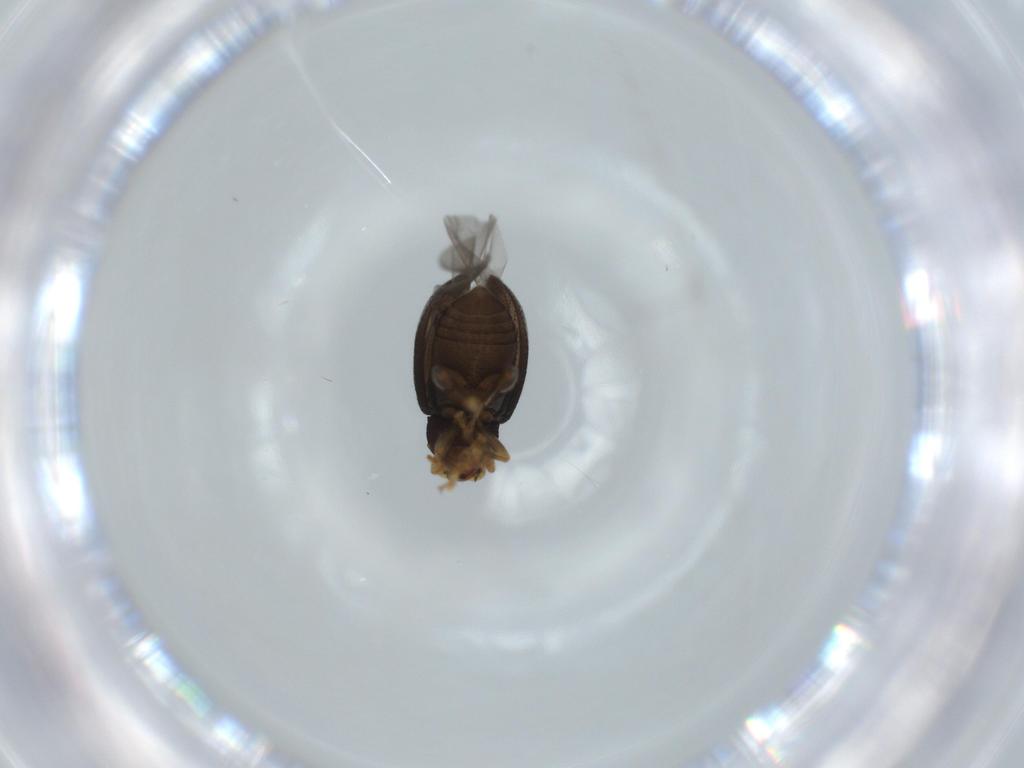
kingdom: Animalia
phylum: Arthropoda
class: Insecta
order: Coleoptera
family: Chrysomelidae
